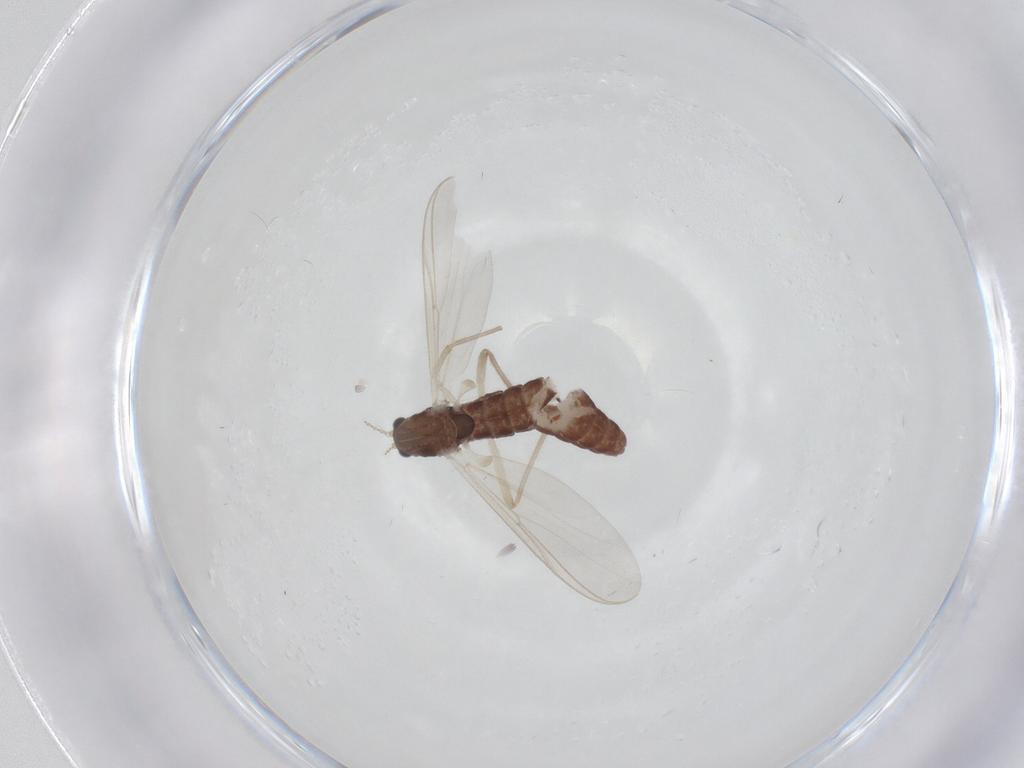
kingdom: Animalia
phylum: Arthropoda
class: Insecta
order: Diptera
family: Chironomidae
